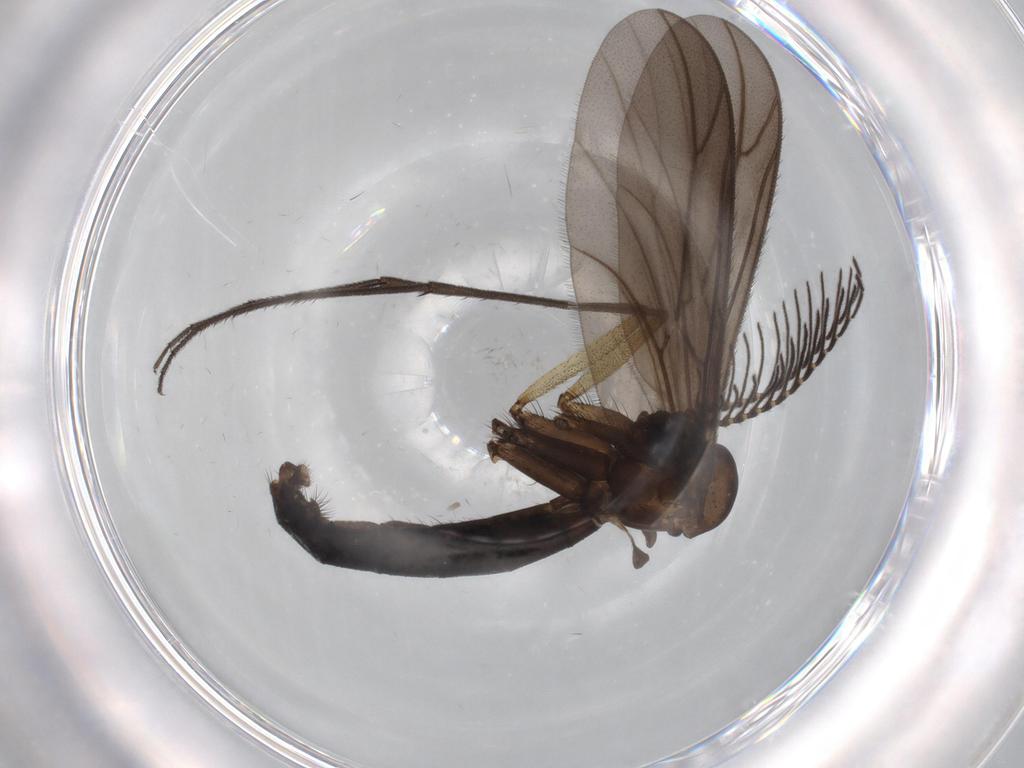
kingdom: Animalia
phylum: Arthropoda
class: Insecta
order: Diptera
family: Ditomyiidae
